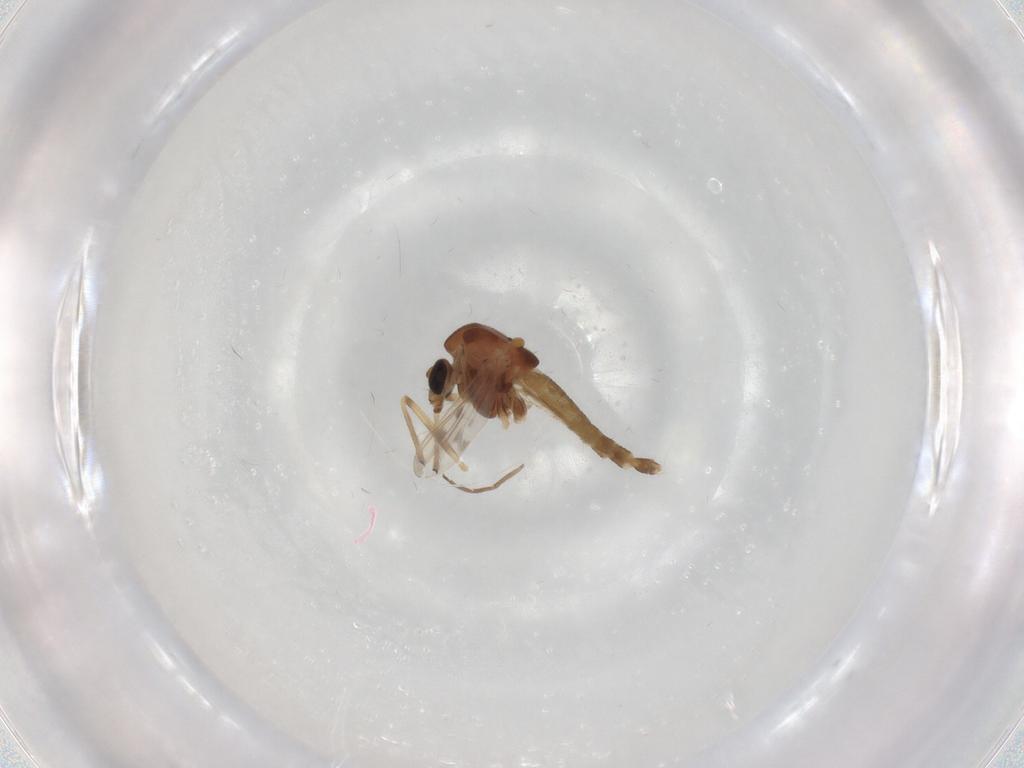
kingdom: Animalia
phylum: Arthropoda
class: Insecta
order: Diptera
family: Chironomidae
